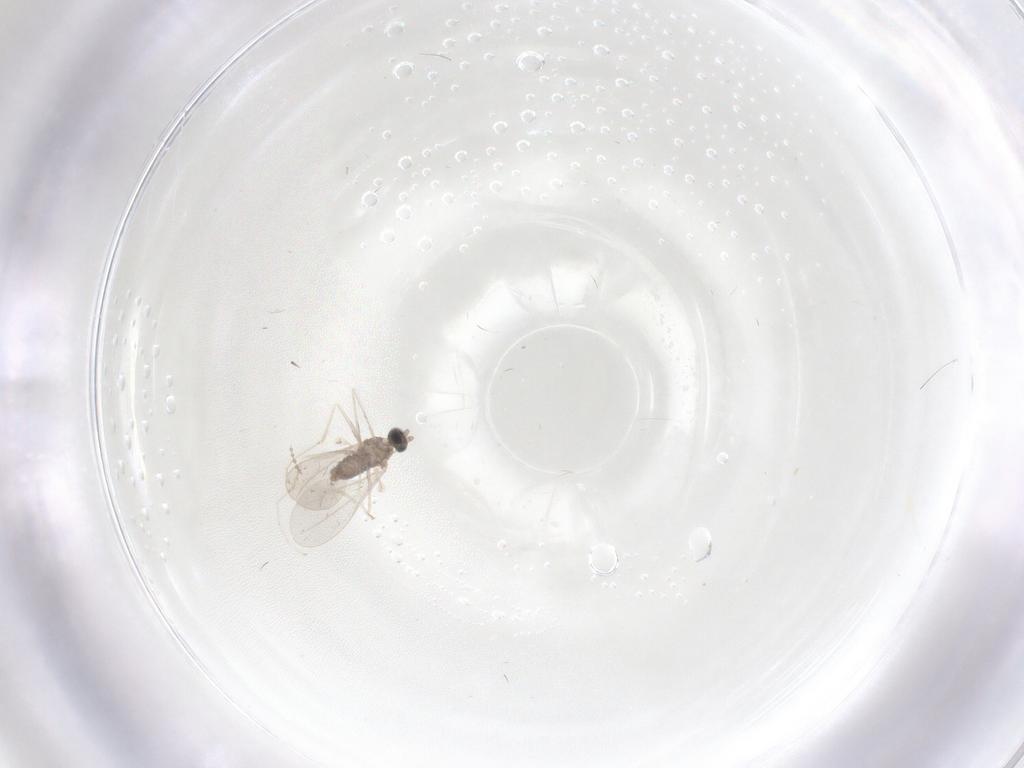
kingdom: Animalia
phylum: Arthropoda
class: Insecta
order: Diptera
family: Cecidomyiidae
